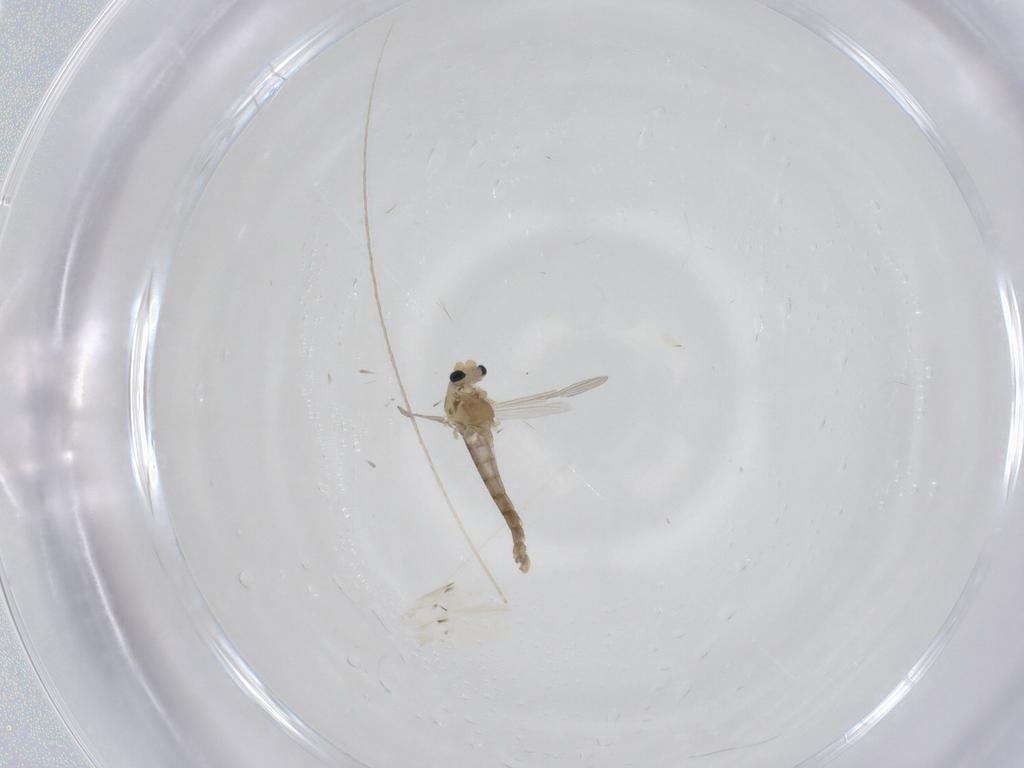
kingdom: Animalia
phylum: Arthropoda
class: Insecta
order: Diptera
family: Chironomidae
